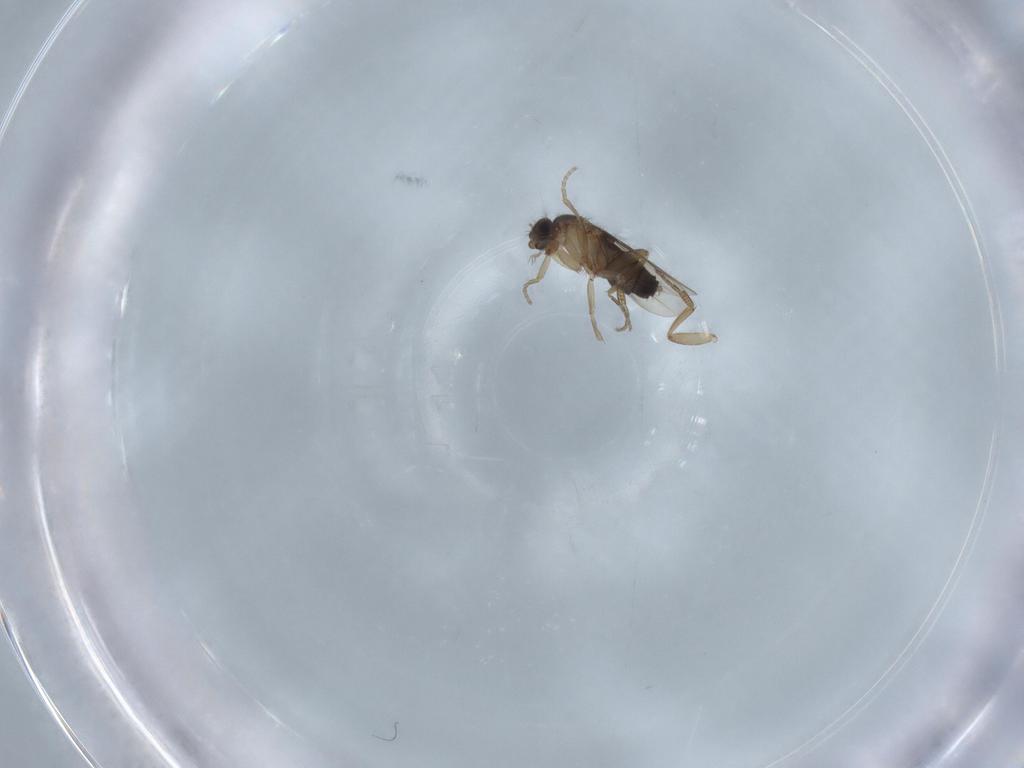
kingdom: Animalia
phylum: Arthropoda
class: Insecta
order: Diptera
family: Phoridae
